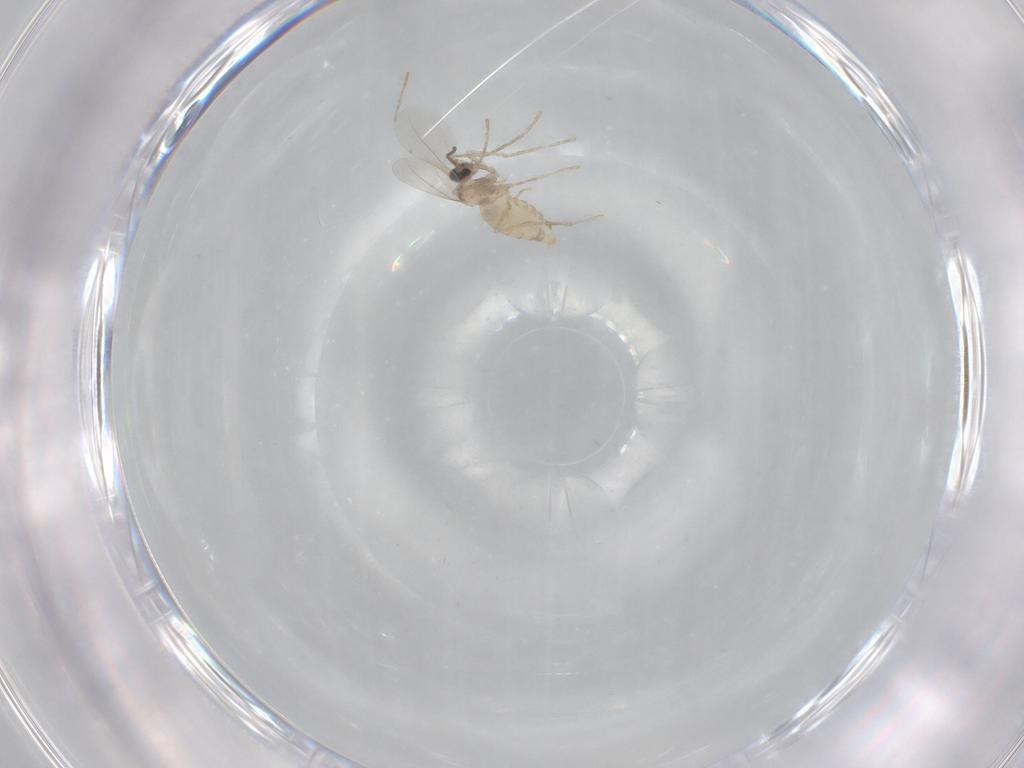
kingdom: Animalia
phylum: Arthropoda
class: Insecta
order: Diptera
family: Cecidomyiidae
